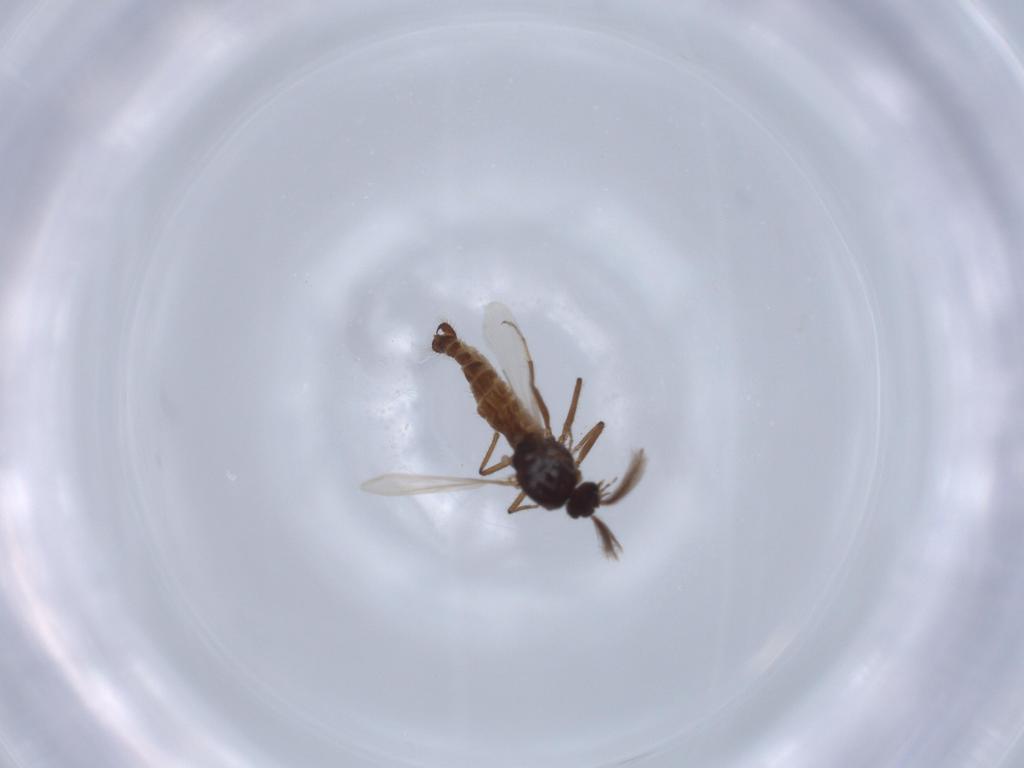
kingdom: Animalia
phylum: Arthropoda
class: Insecta
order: Diptera
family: Ceratopogonidae
